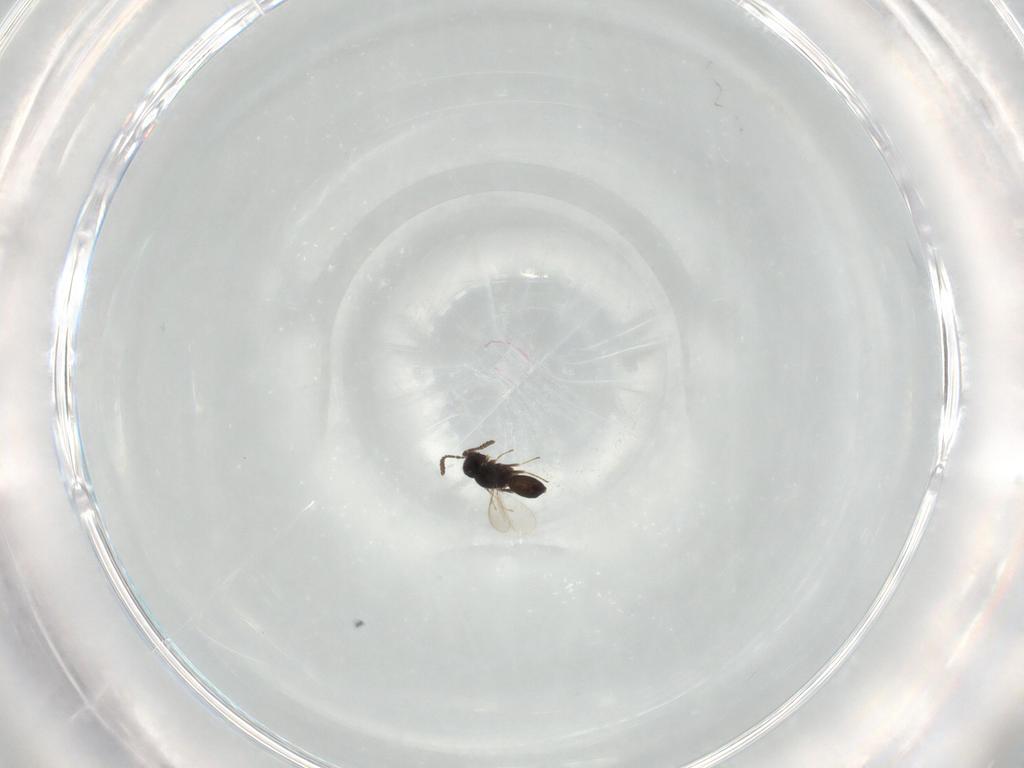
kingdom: Animalia
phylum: Arthropoda
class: Insecta
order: Hymenoptera
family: Scelionidae
